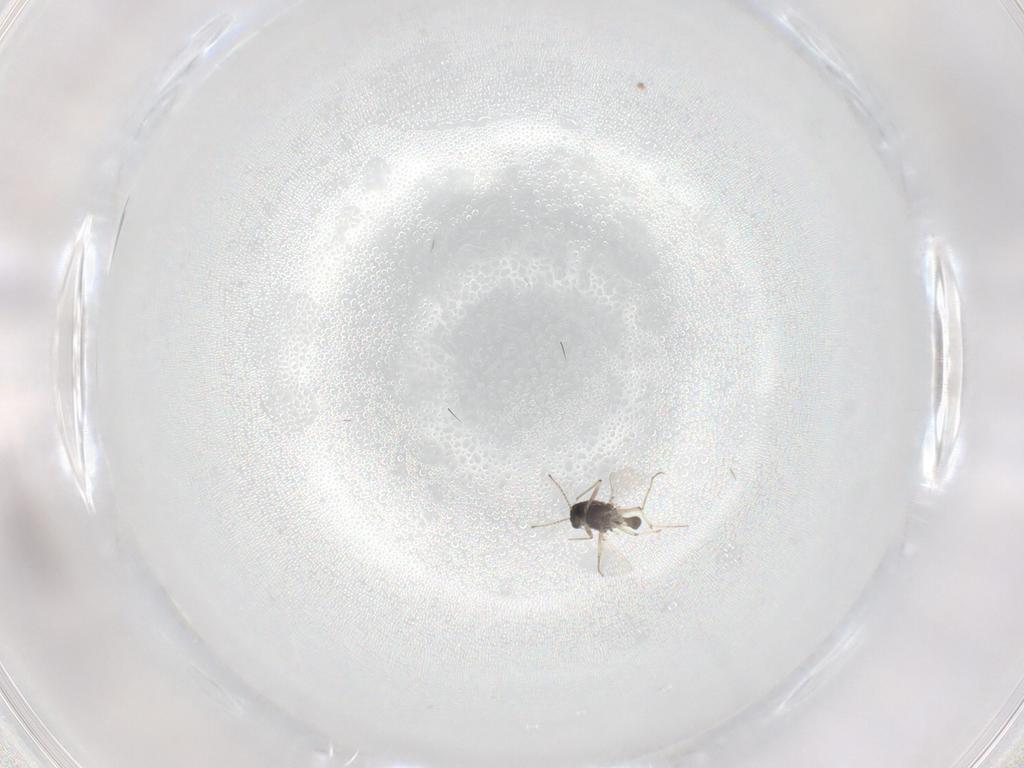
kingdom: Animalia
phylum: Arthropoda
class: Insecta
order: Diptera
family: Chironomidae
